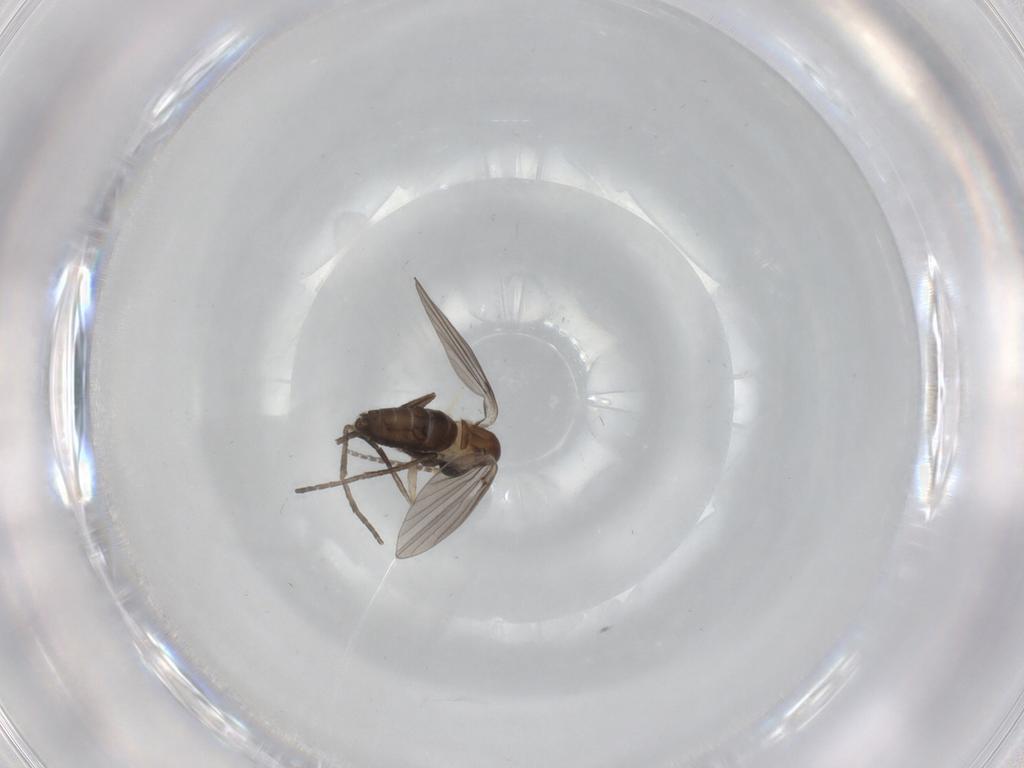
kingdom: Animalia
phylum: Arthropoda
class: Insecta
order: Diptera
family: Psychodidae
